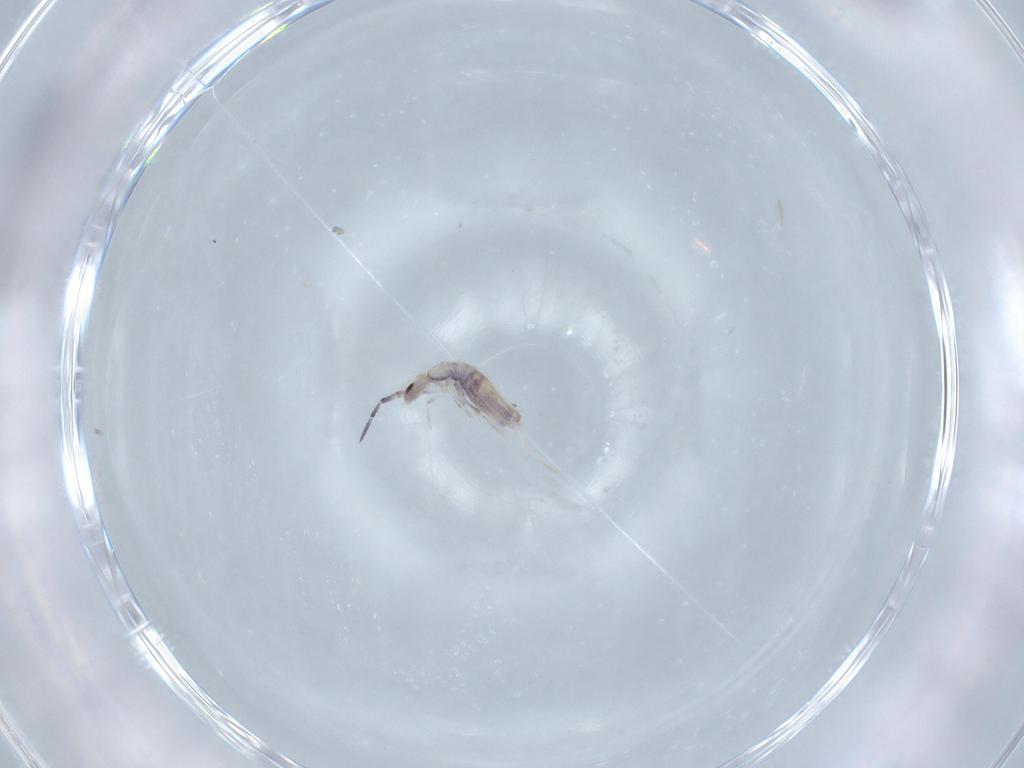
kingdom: Animalia
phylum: Arthropoda
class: Collembola
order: Poduromorpha
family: Hypogastruridae
